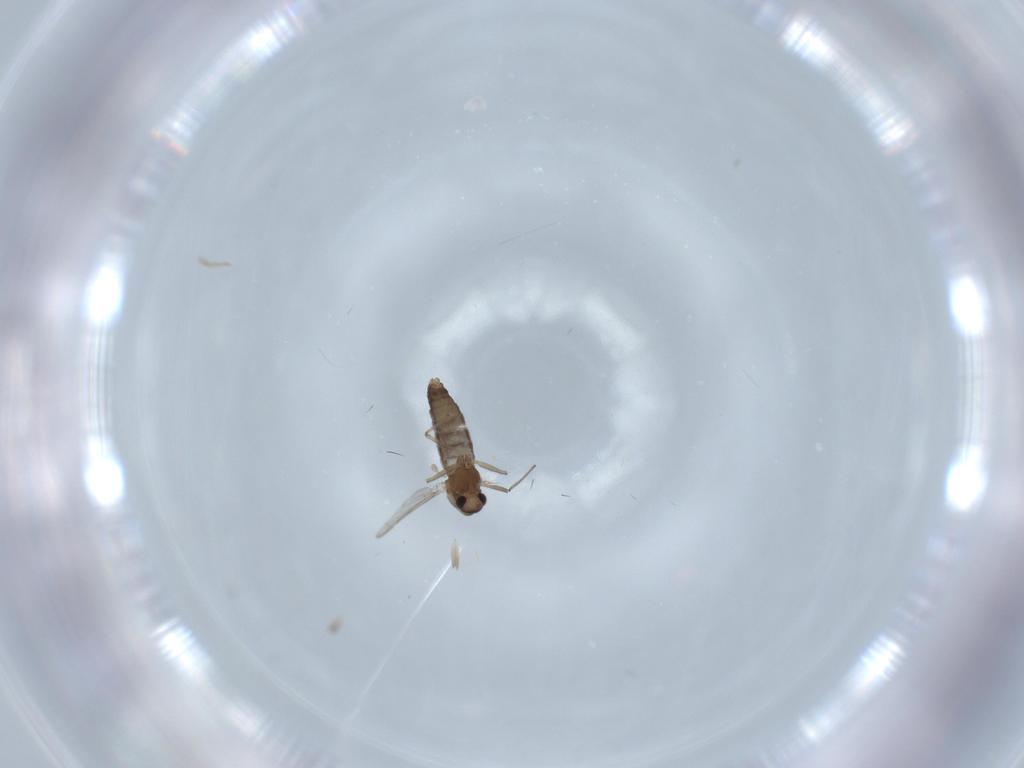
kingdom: Animalia
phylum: Arthropoda
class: Insecta
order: Diptera
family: Chironomidae
